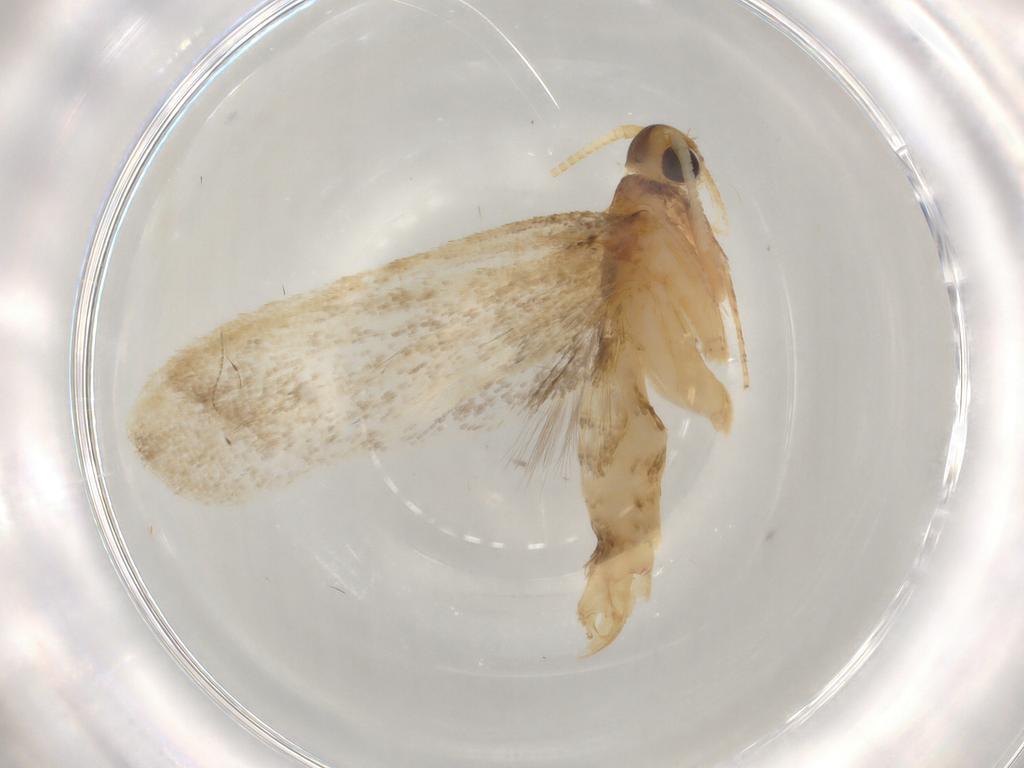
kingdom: Animalia
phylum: Arthropoda
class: Insecta
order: Lepidoptera
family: Lecithoceridae
